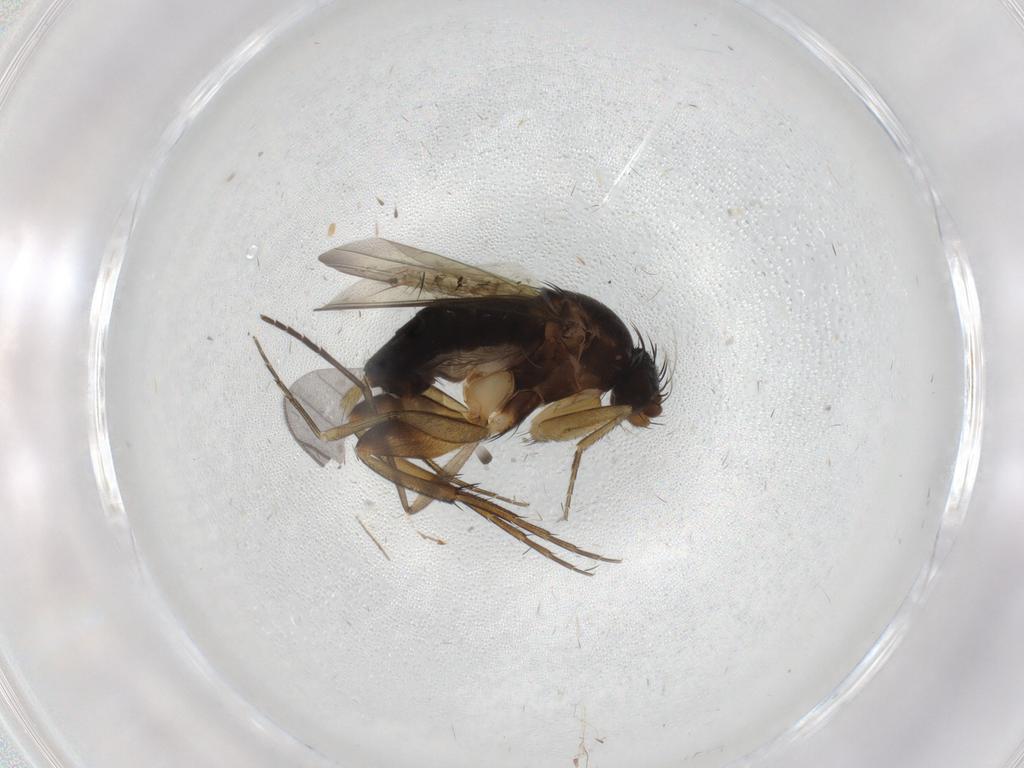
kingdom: Animalia
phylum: Arthropoda
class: Insecta
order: Diptera
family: Phoridae
